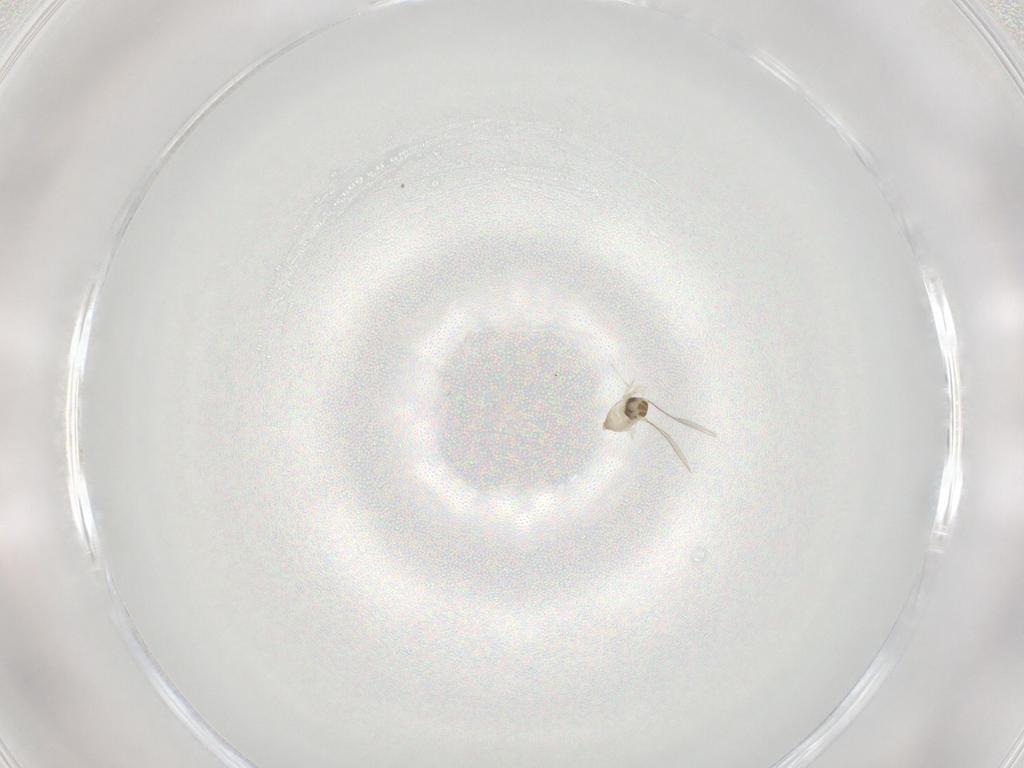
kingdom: Animalia
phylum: Arthropoda
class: Insecta
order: Diptera
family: Cecidomyiidae
